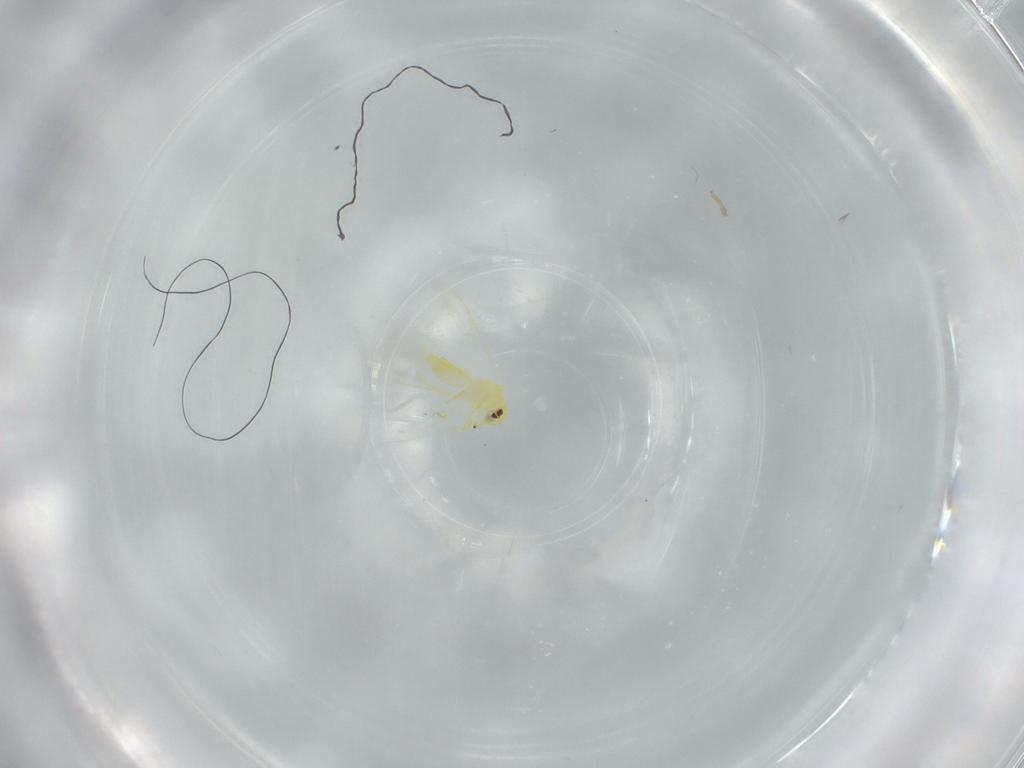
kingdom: Animalia
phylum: Arthropoda
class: Insecta
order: Hemiptera
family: Aleyrodidae
